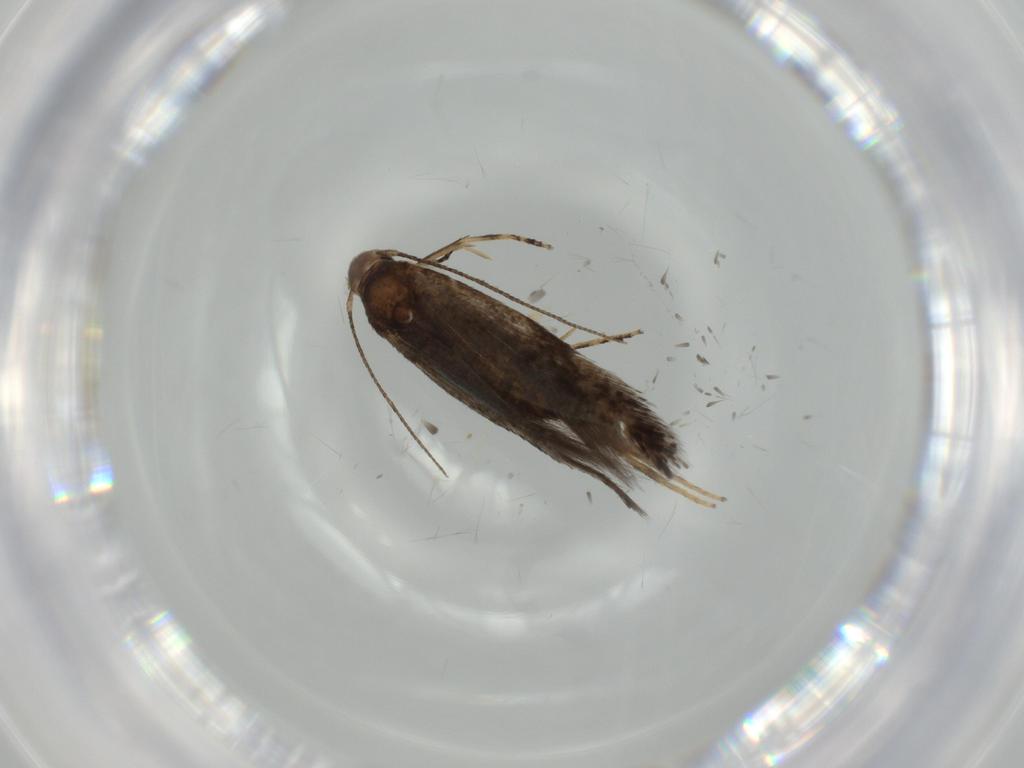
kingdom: Animalia
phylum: Arthropoda
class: Insecta
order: Diptera
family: Cecidomyiidae
